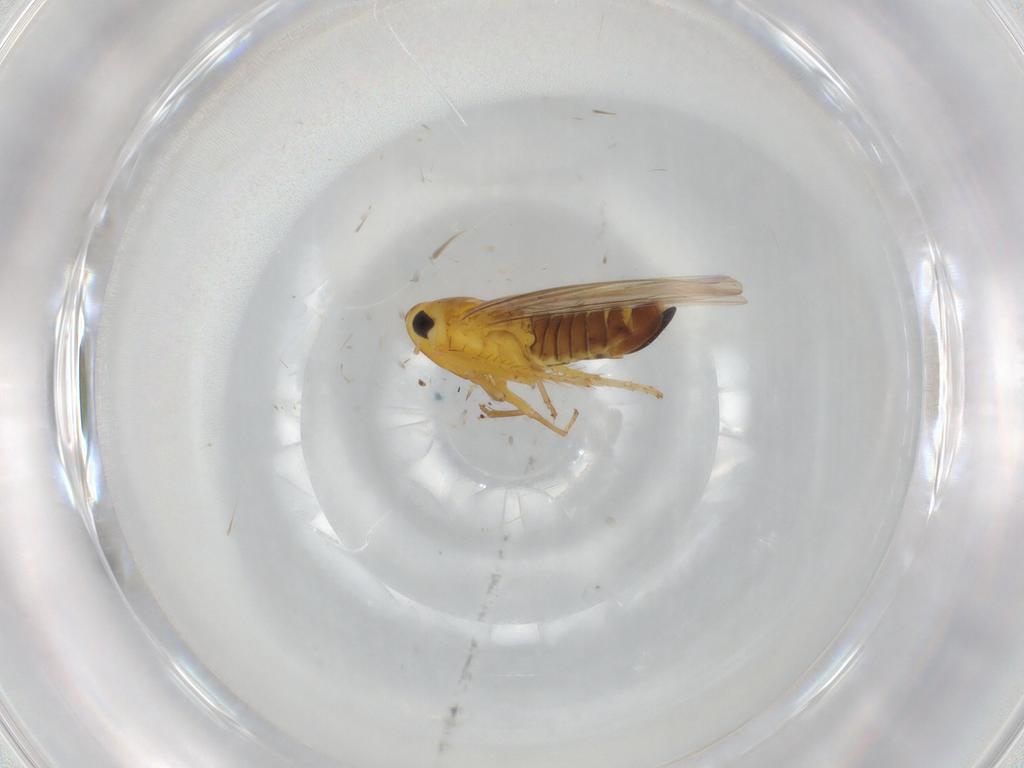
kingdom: Animalia
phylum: Arthropoda
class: Insecta
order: Hemiptera
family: Cicadellidae
